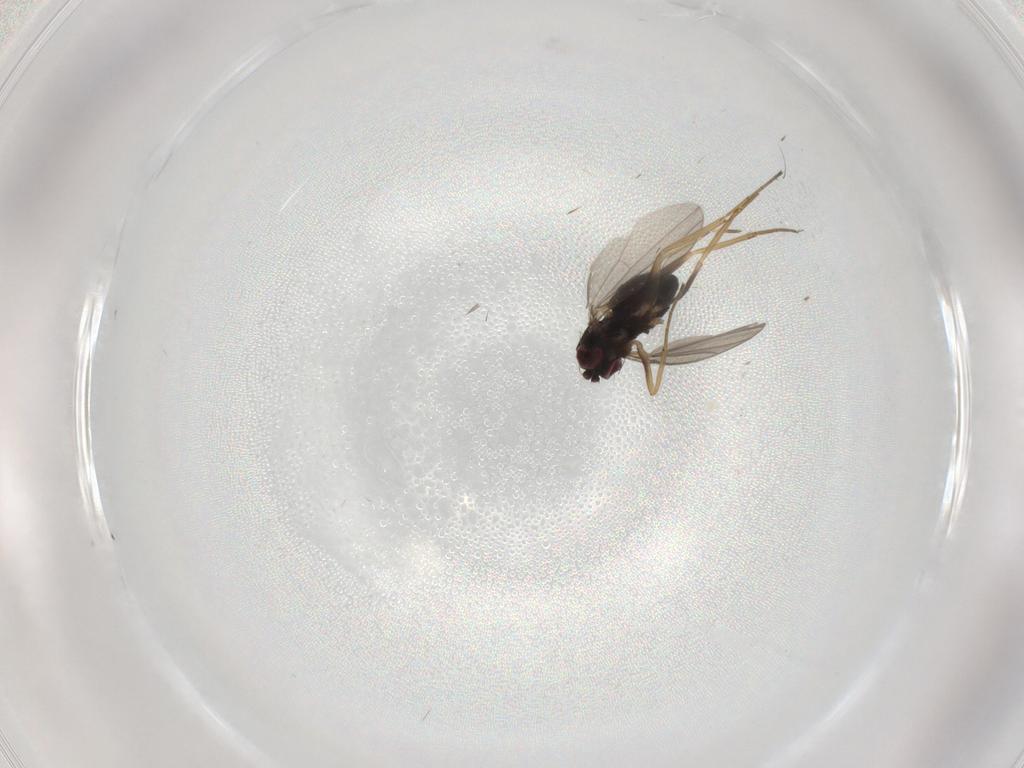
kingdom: Animalia
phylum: Arthropoda
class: Insecta
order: Diptera
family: Dolichopodidae
